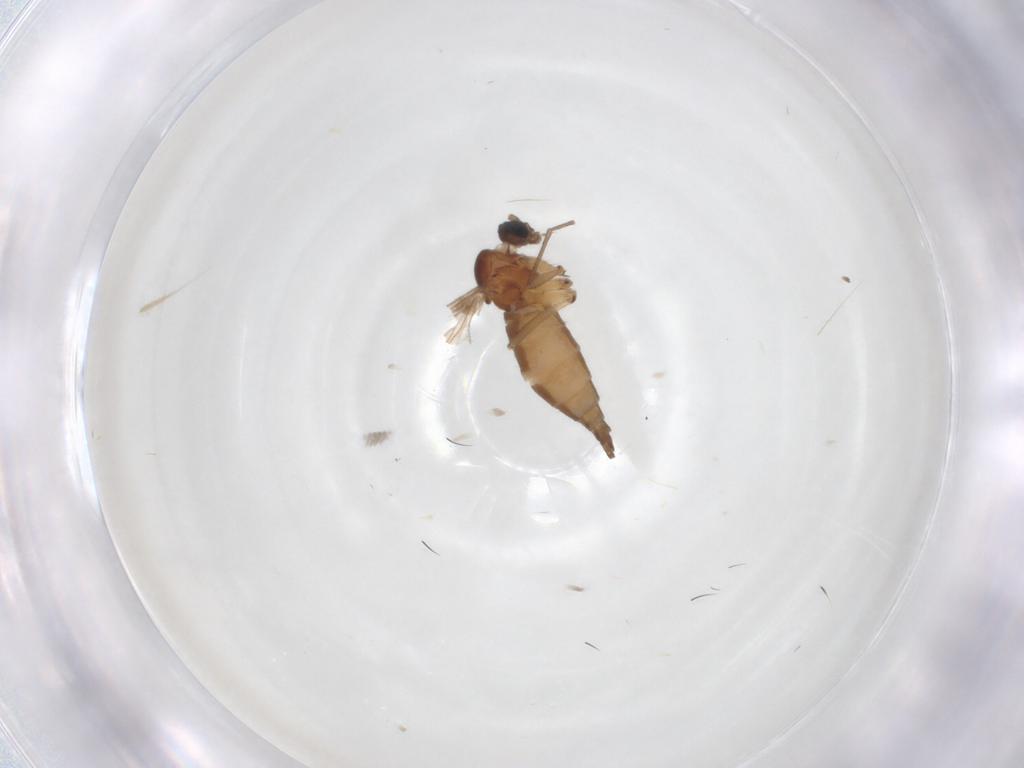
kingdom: Animalia
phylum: Arthropoda
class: Insecta
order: Diptera
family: Sciaridae
